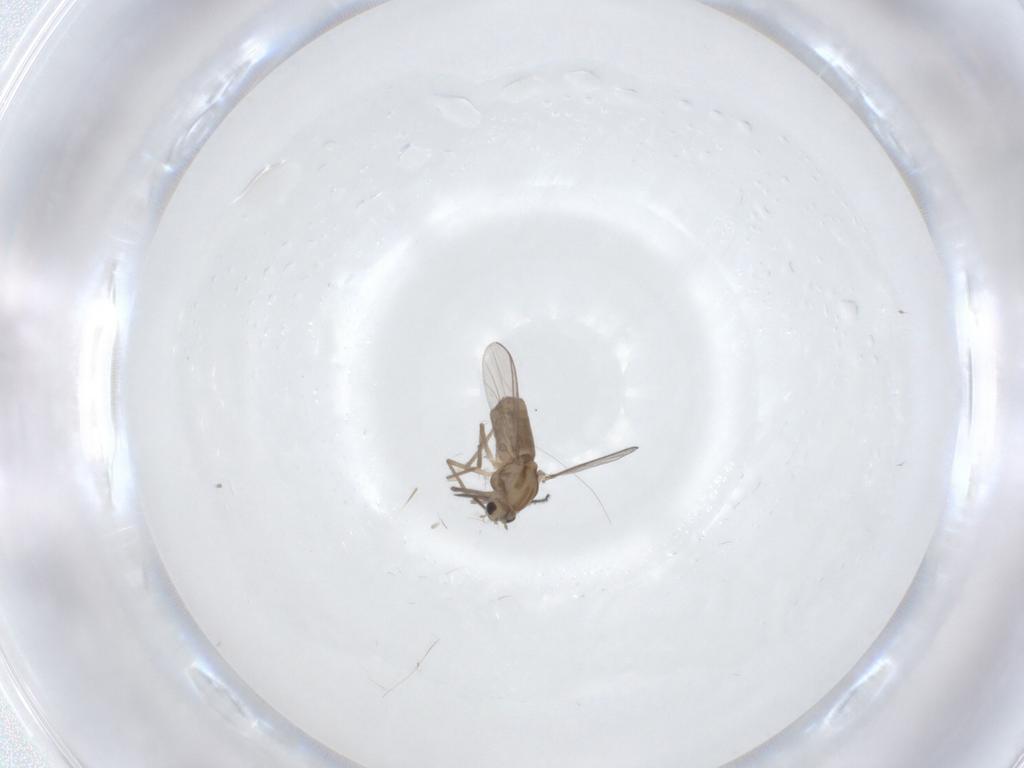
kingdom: Animalia
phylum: Arthropoda
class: Insecta
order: Diptera
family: Chironomidae
